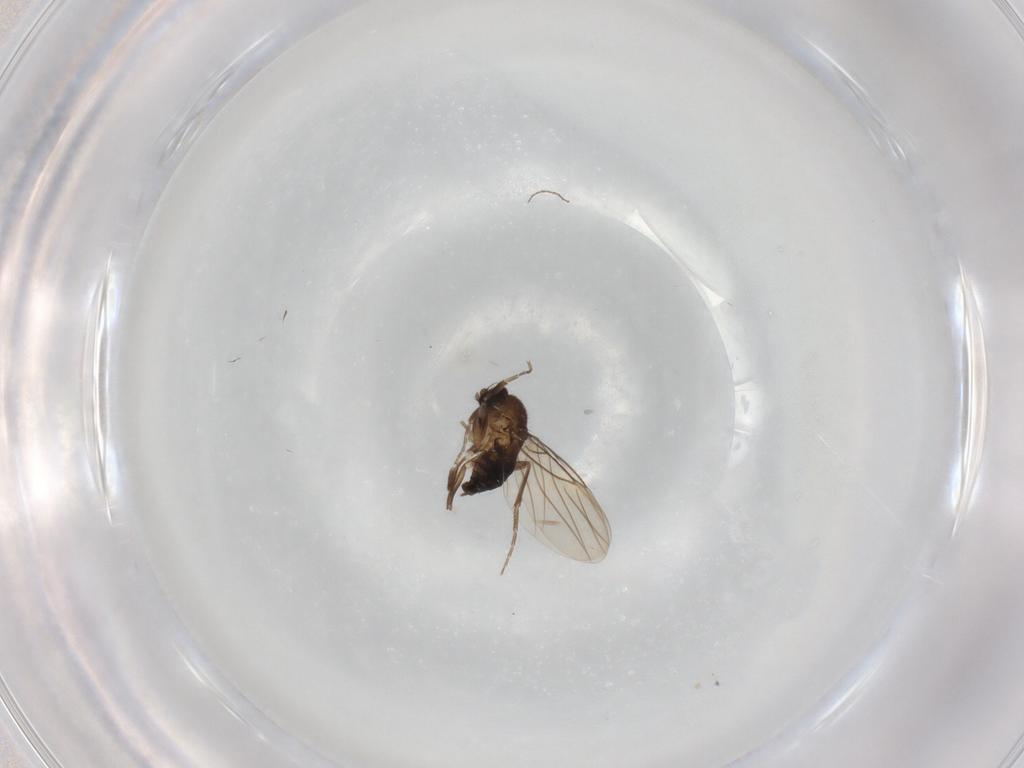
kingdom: Animalia
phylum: Arthropoda
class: Insecta
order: Diptera
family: Phoridae
